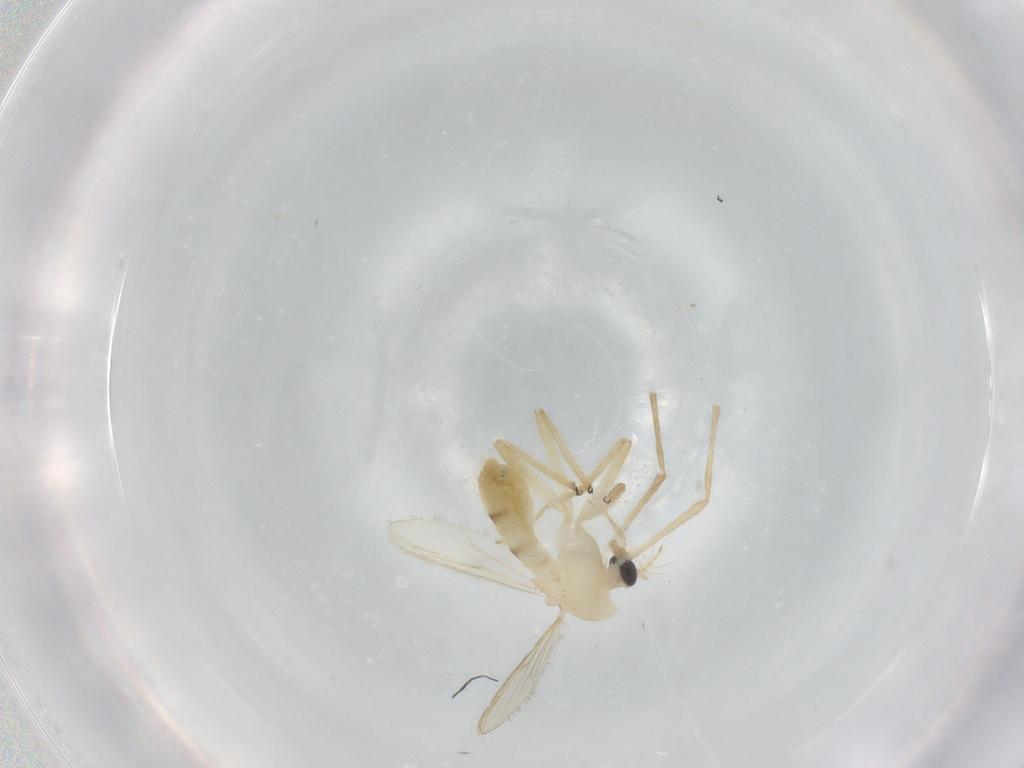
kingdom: Animalia
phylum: Arthropoda
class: Insecta
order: Diptera
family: Chironomidae
